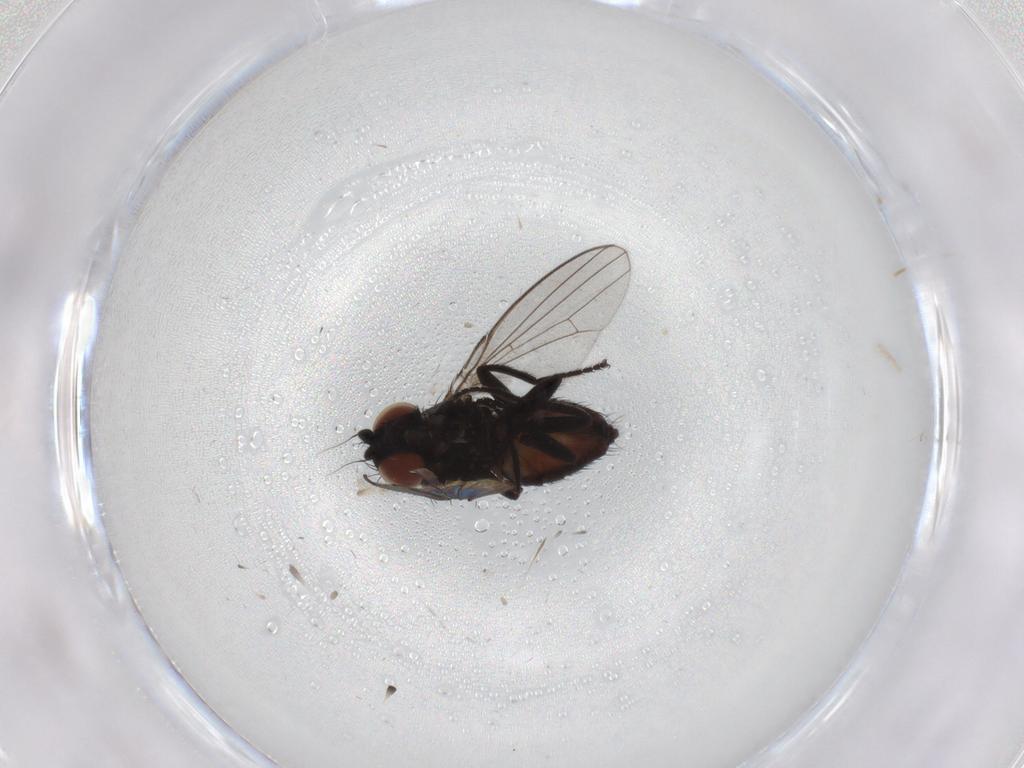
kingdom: Animalia
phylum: Arthropoda
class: Insecta
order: Diptera
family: Milichiidae
